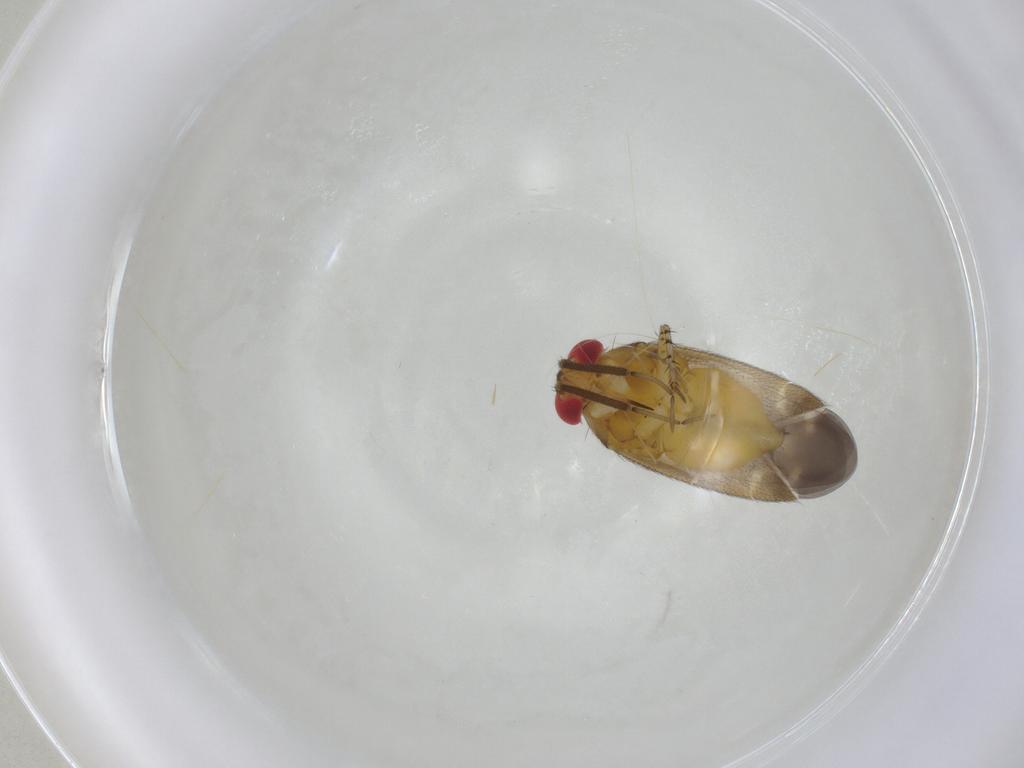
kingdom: Animalia
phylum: Arthropoda
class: Insecta
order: Hemiptera
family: Miridae
